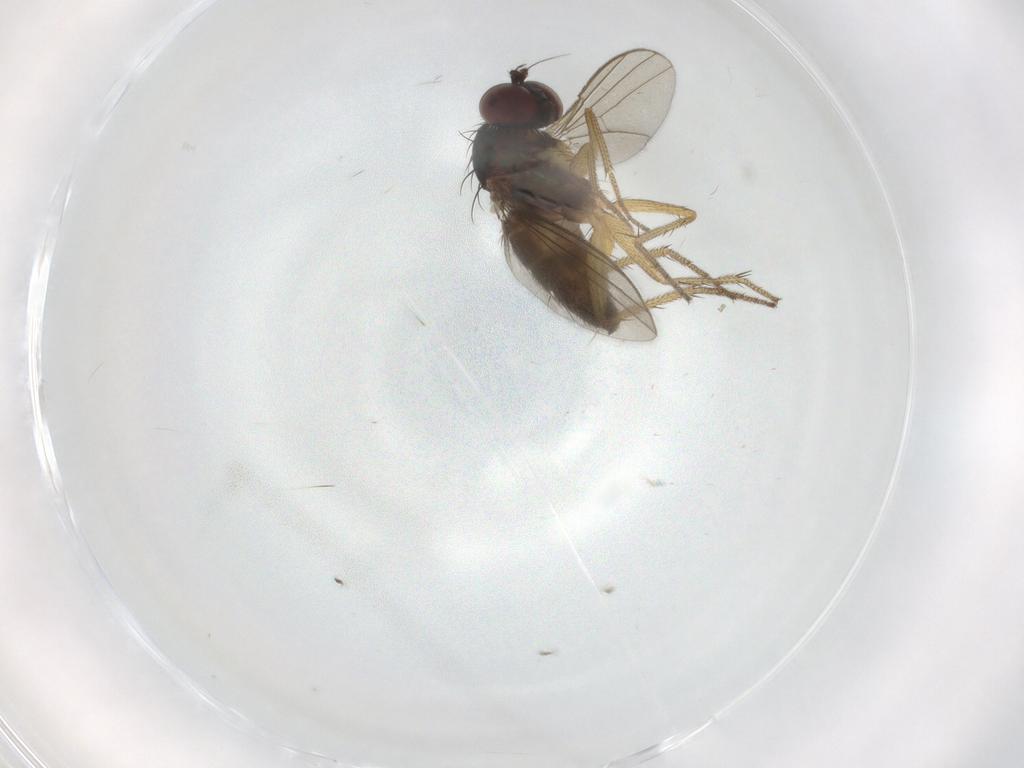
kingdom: Animalia
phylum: Arthropoda
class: Insecta
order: Diptera
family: Dolichopodidae
